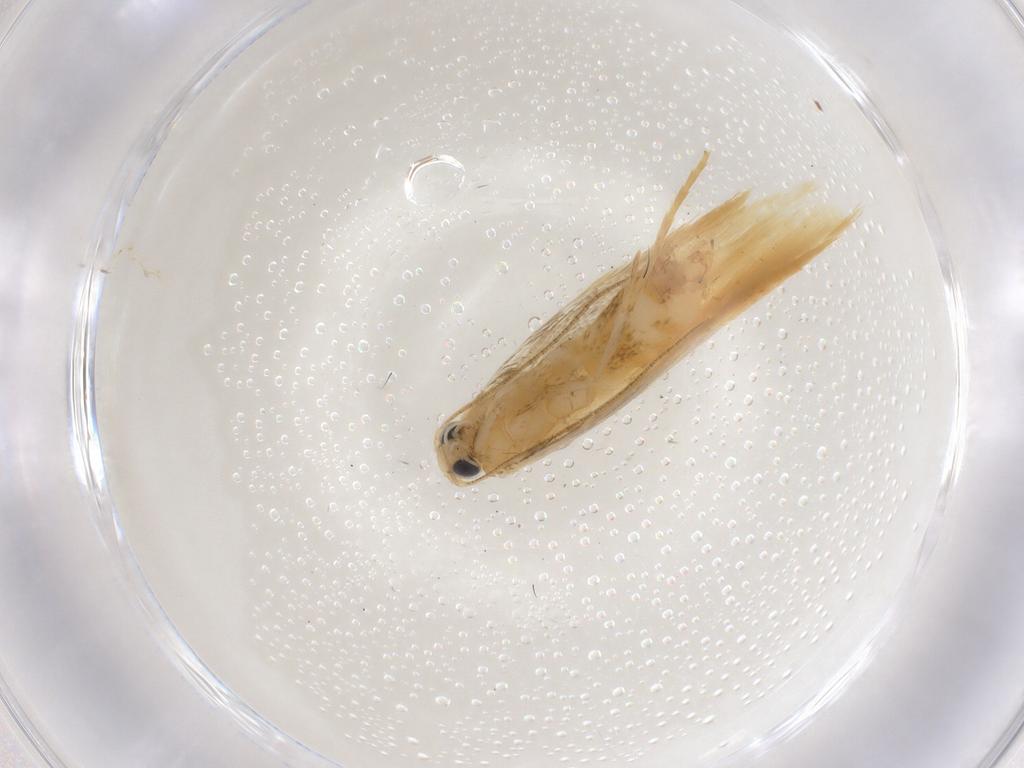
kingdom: Animalia
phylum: Arthropoda
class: Insecta
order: Lepidoptera
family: Tischeriidae
